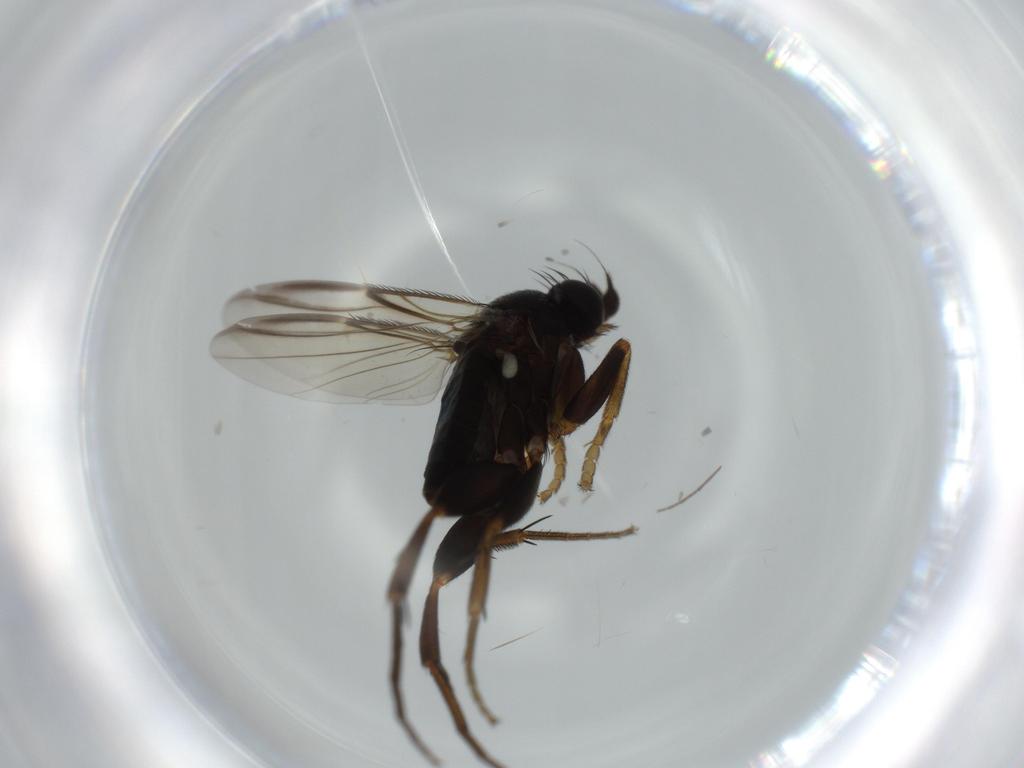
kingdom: Animalia
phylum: Arthropoda
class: Insecta
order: Diptera
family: Phoridae
